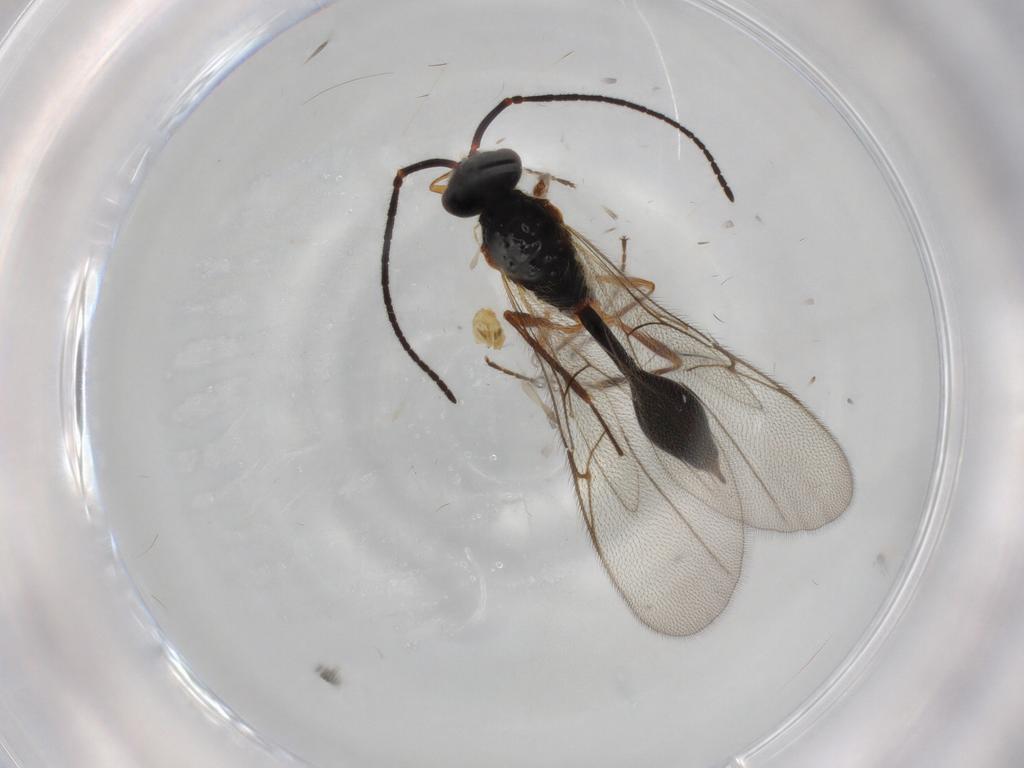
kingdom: Animalia
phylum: Arthropoda
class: Insecta
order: Hymenoptera
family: Diapriidae
